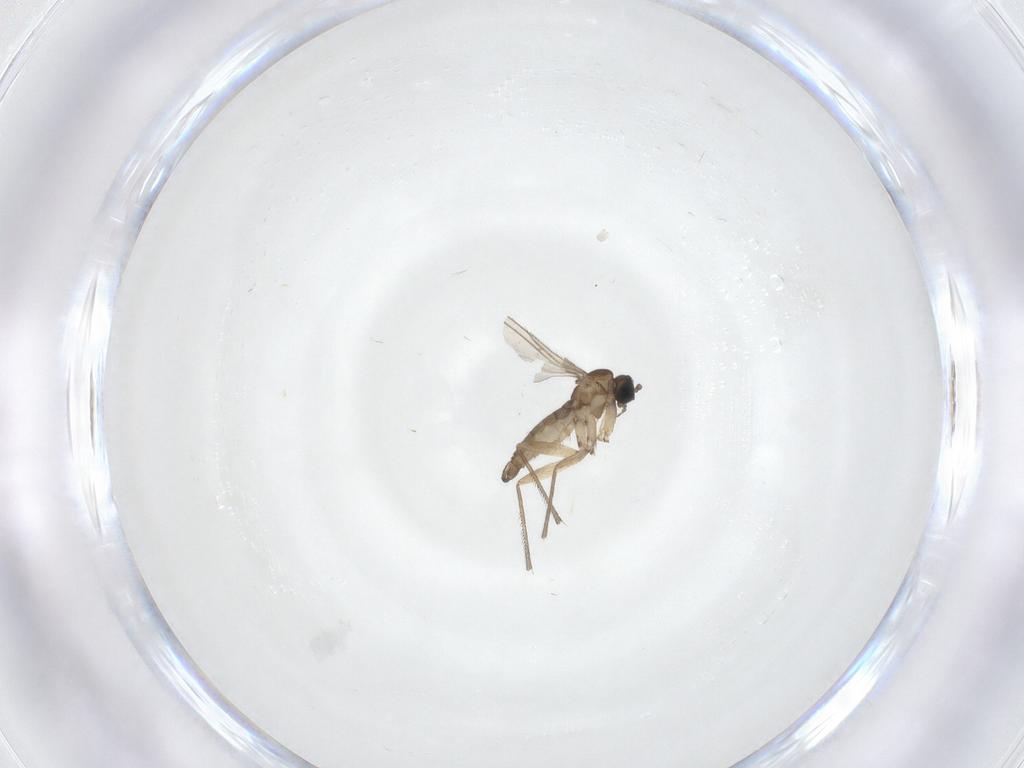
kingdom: Animalia
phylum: Arthropoda
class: Insecta
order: Diptera
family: Sciaridae
